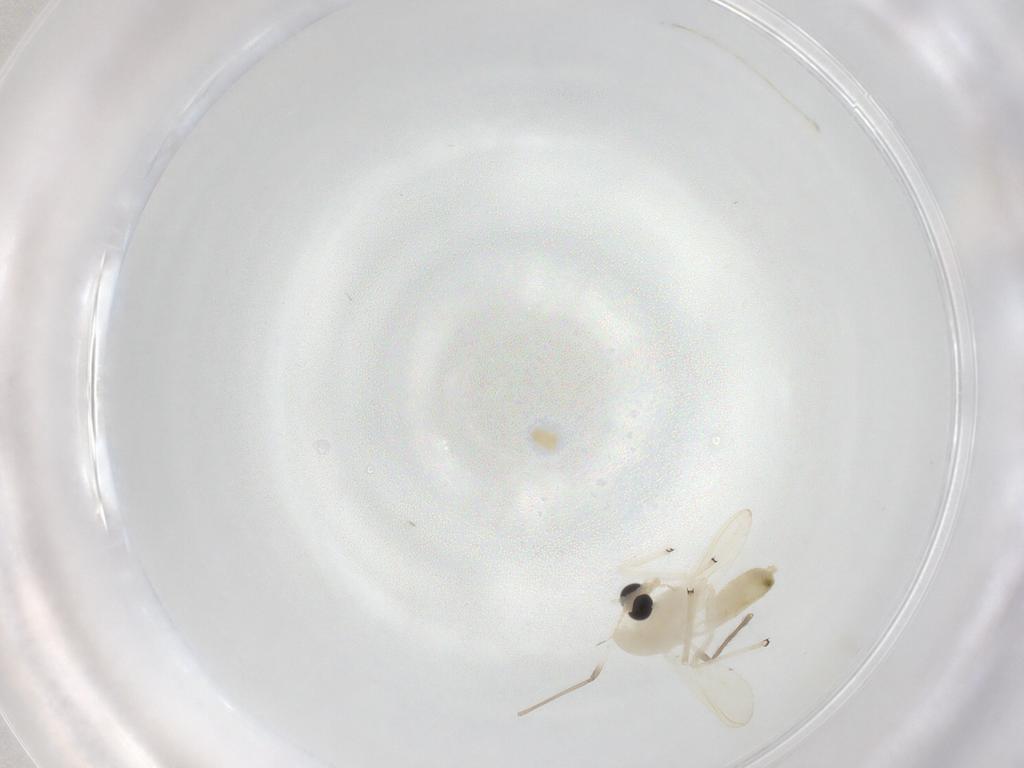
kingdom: Animalia
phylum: Arthropoda
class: Insecta
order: Diptera
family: Chironomidae
